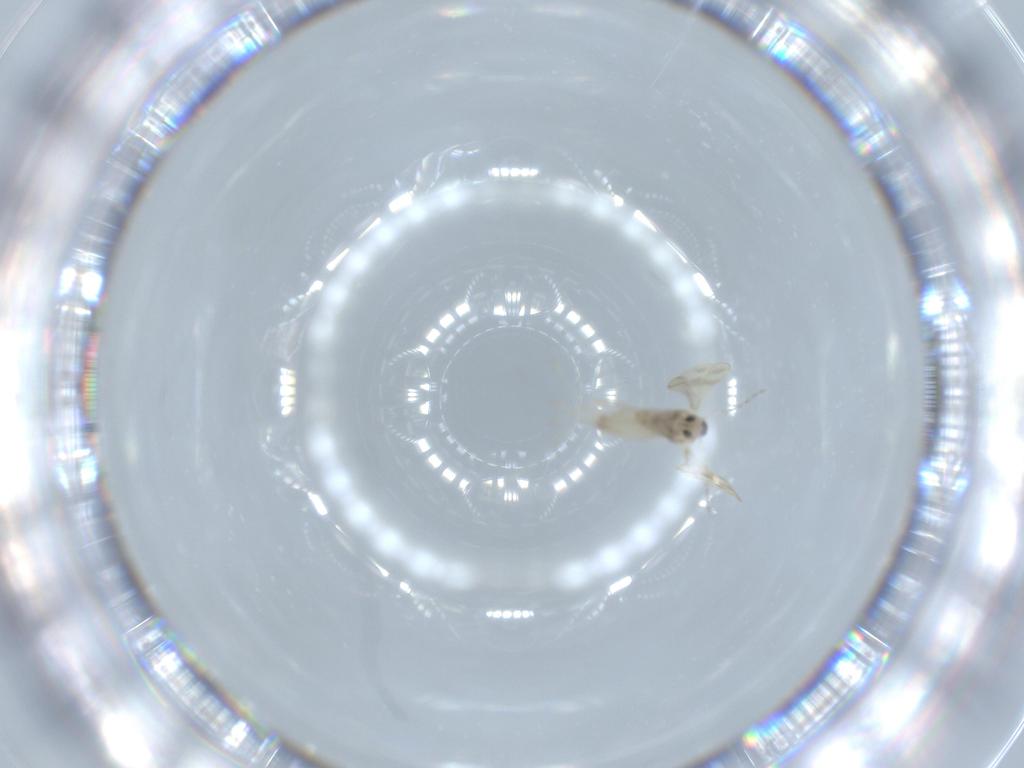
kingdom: Animalia
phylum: Arthropoda
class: Insecta
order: Diptera
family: Cecidomyiidae
